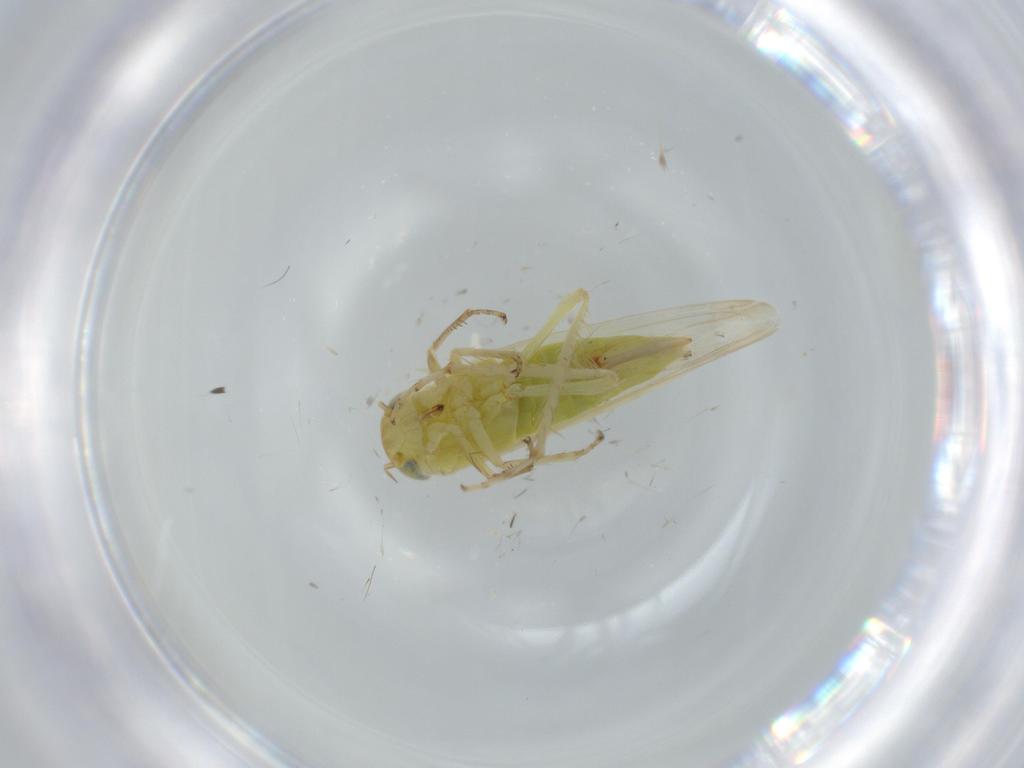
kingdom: Animalia
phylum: Arthropoda
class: Insecta
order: Hemiptera
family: Cicadellidae
